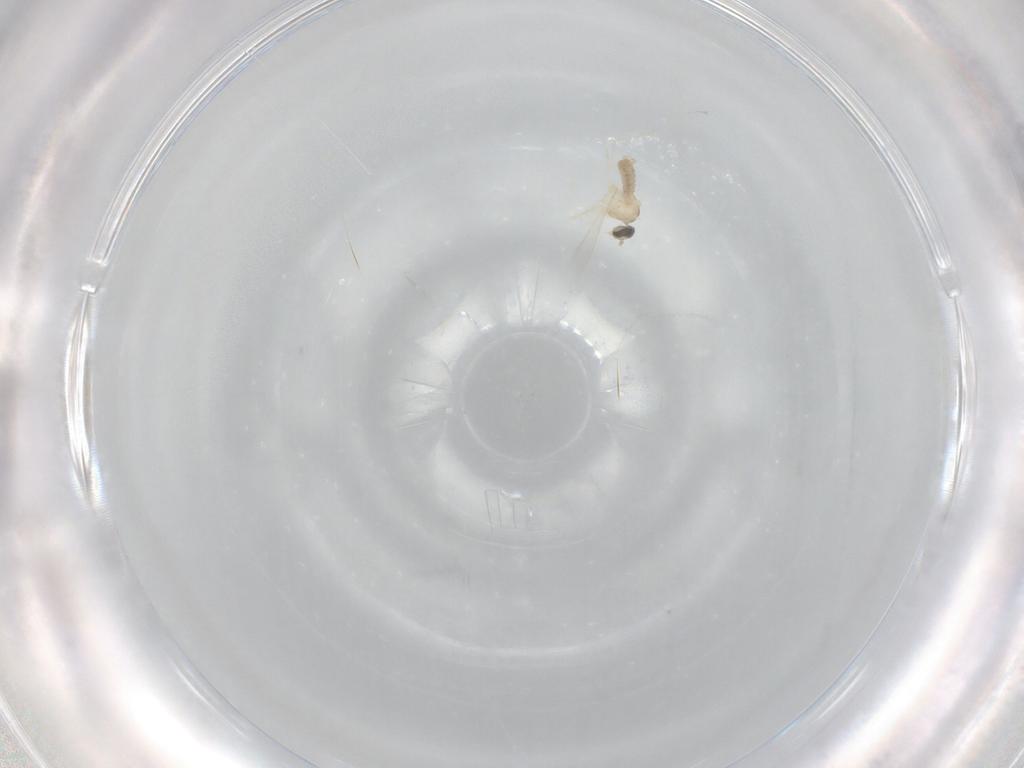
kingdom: Animalia
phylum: Arthropoda
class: Insecta
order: Diptera
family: Cecidomyiidae
